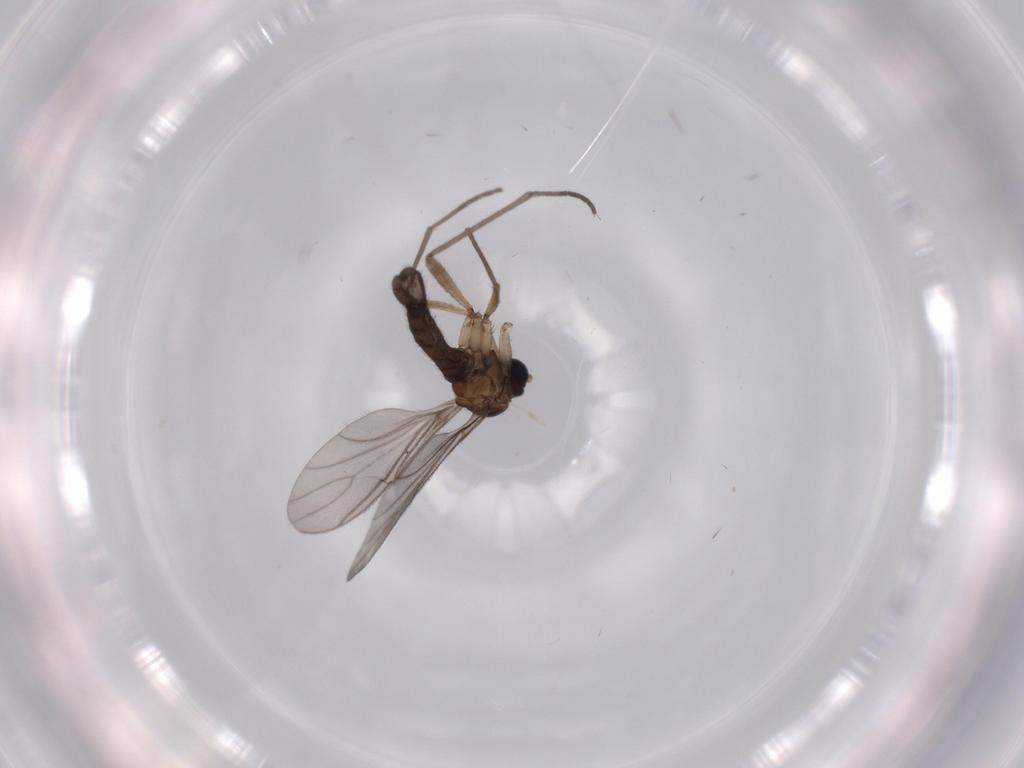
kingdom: Animalia
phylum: Arthropoda
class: Insecta
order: Diptera
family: Sciaridae
